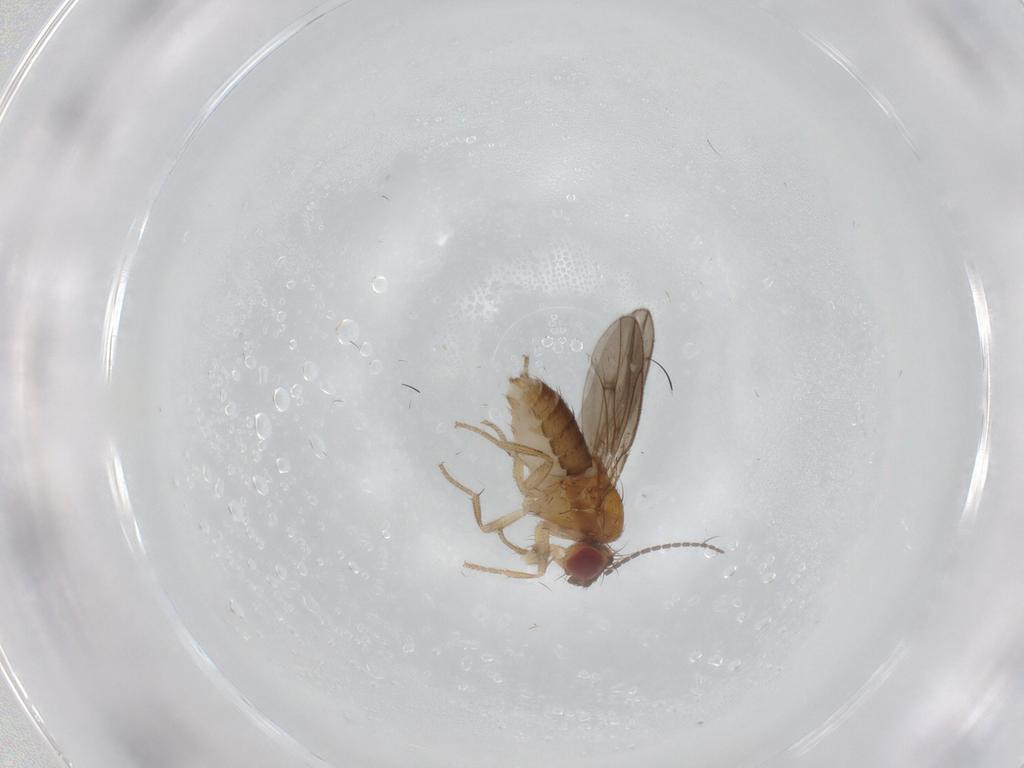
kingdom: Animalia
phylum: Arthropoda
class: Insecta
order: Diptera
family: Drosophilidae
